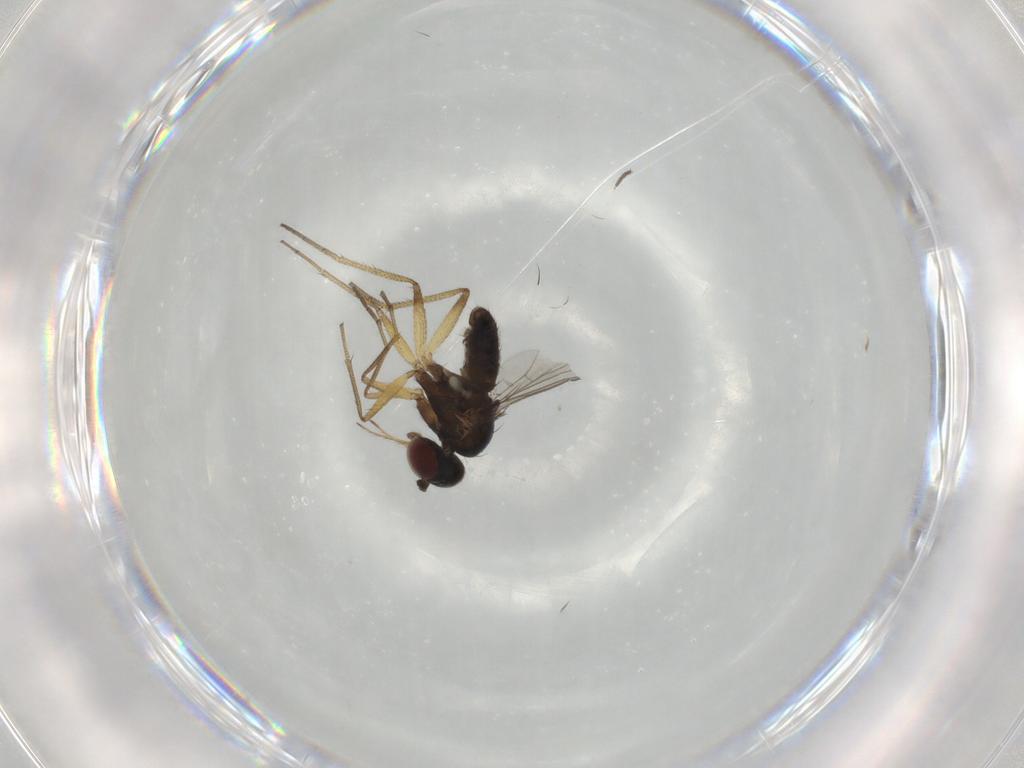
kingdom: Animalia
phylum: Arthropoda
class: Insecta
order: Diptera
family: Dolichopodidae
